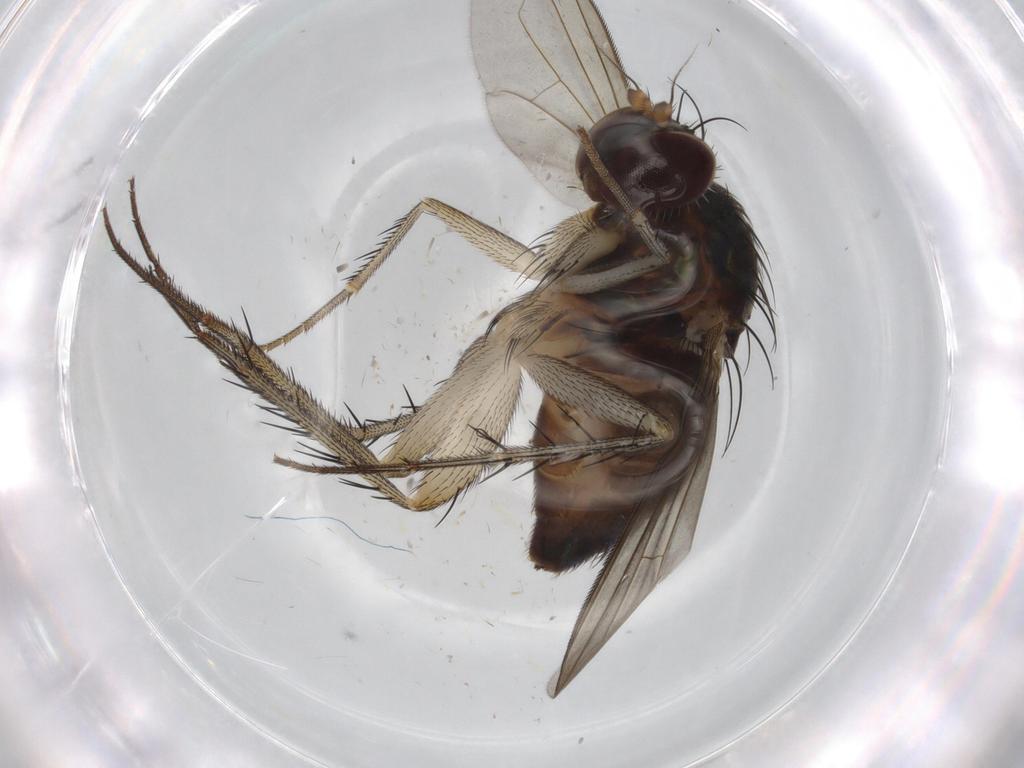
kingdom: Animalia
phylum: Arthropoda
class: Insecta
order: Diptera
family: Dolichopodidae
